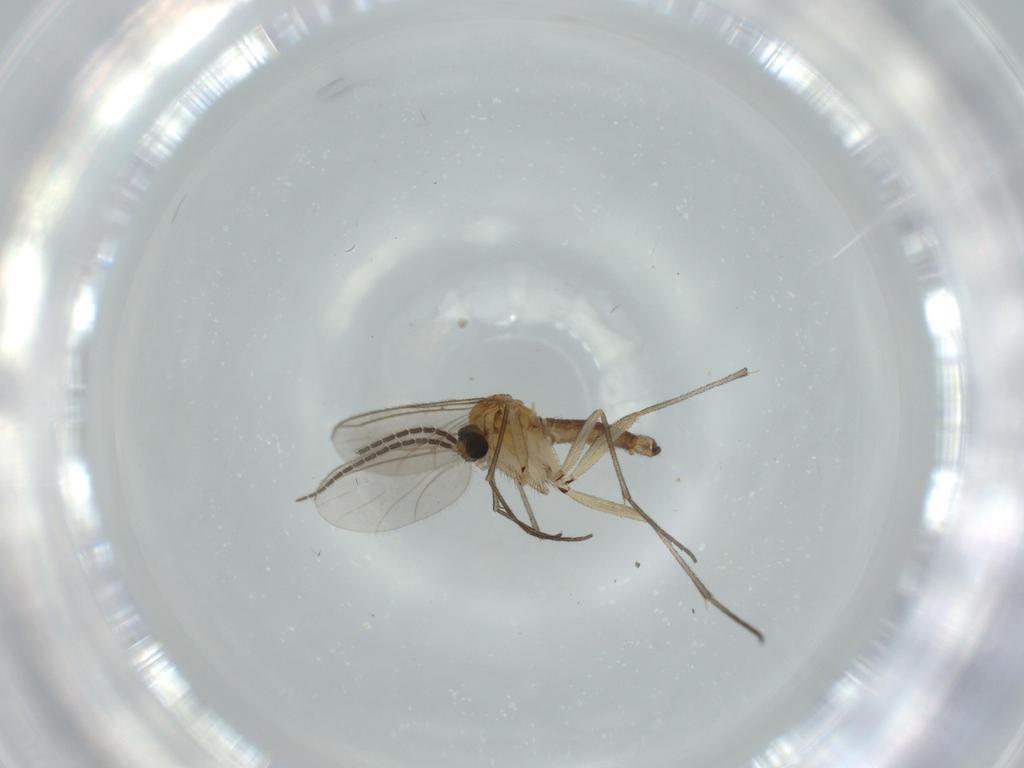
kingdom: Animalia
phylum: Arthropoda
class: Insecta
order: Diptera
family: Sciaridae
